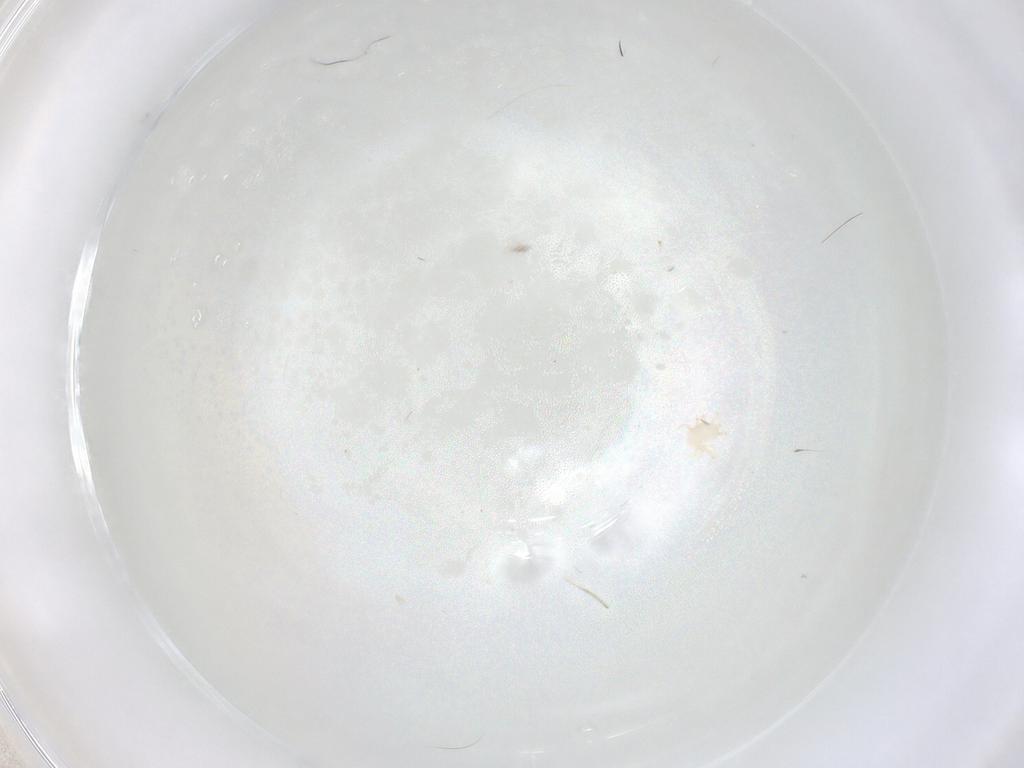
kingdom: Animalia
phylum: Arthropoda
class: Arachnida
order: Mesostigmata
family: Halolaelapidae
